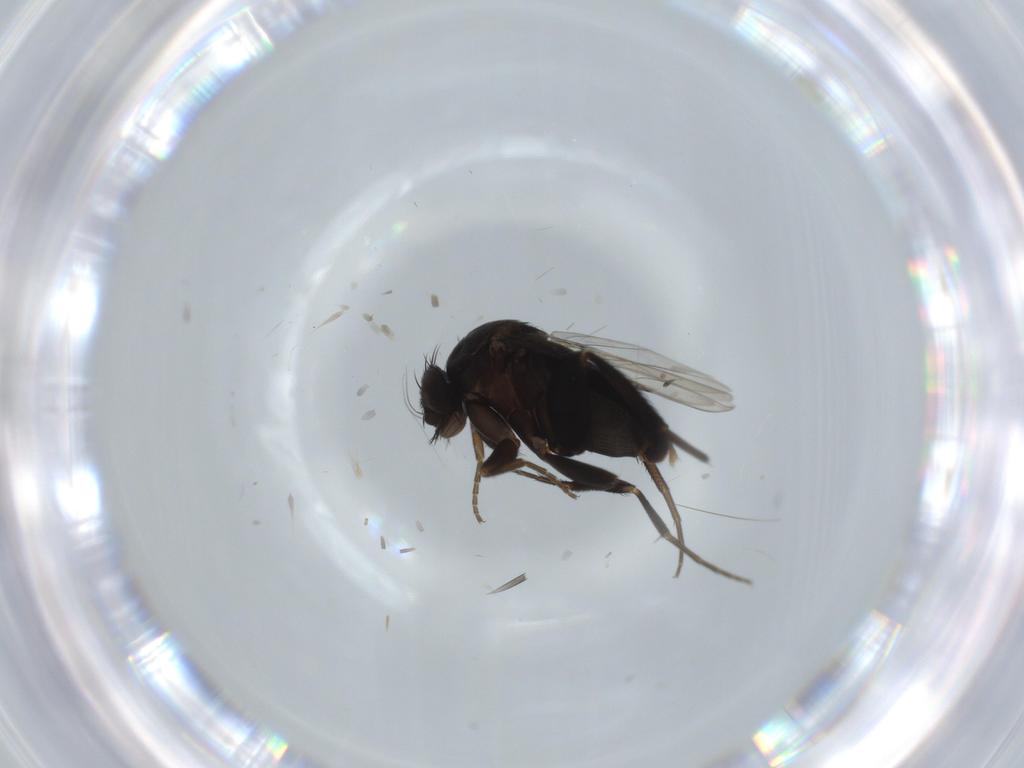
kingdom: Animalia
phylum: Arthropoda
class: Insecta
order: Diptera
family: Phoridae
